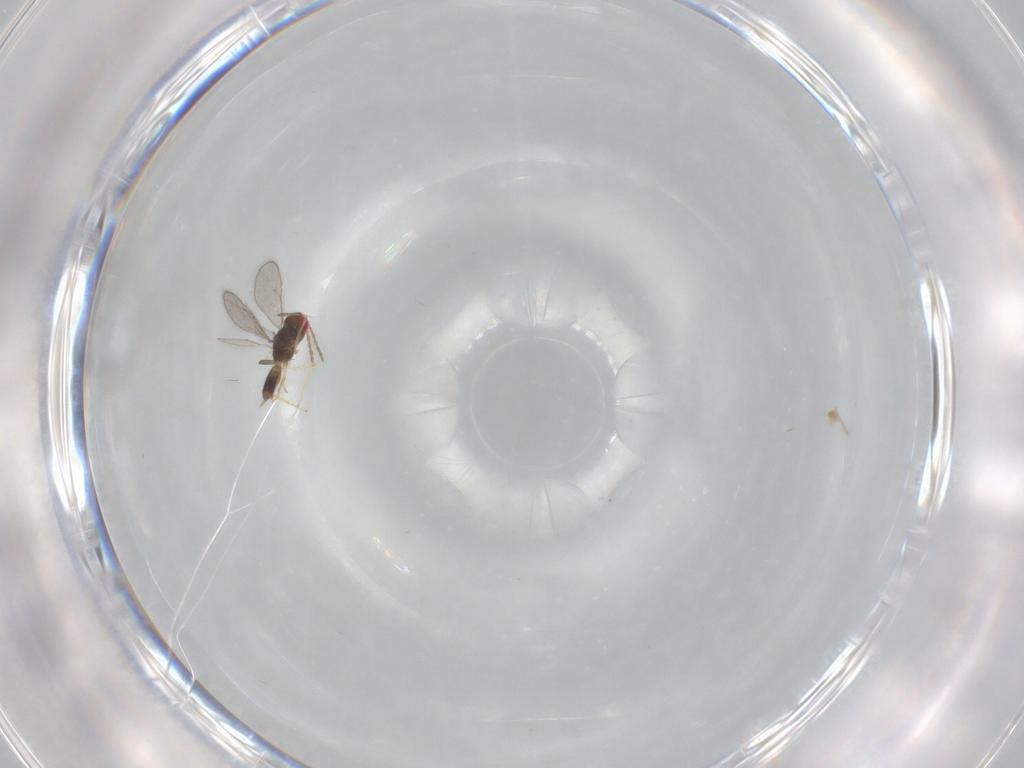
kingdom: Animalia
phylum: Arthropoda
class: Insecta
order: Hymenoptera
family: Eulophidae
